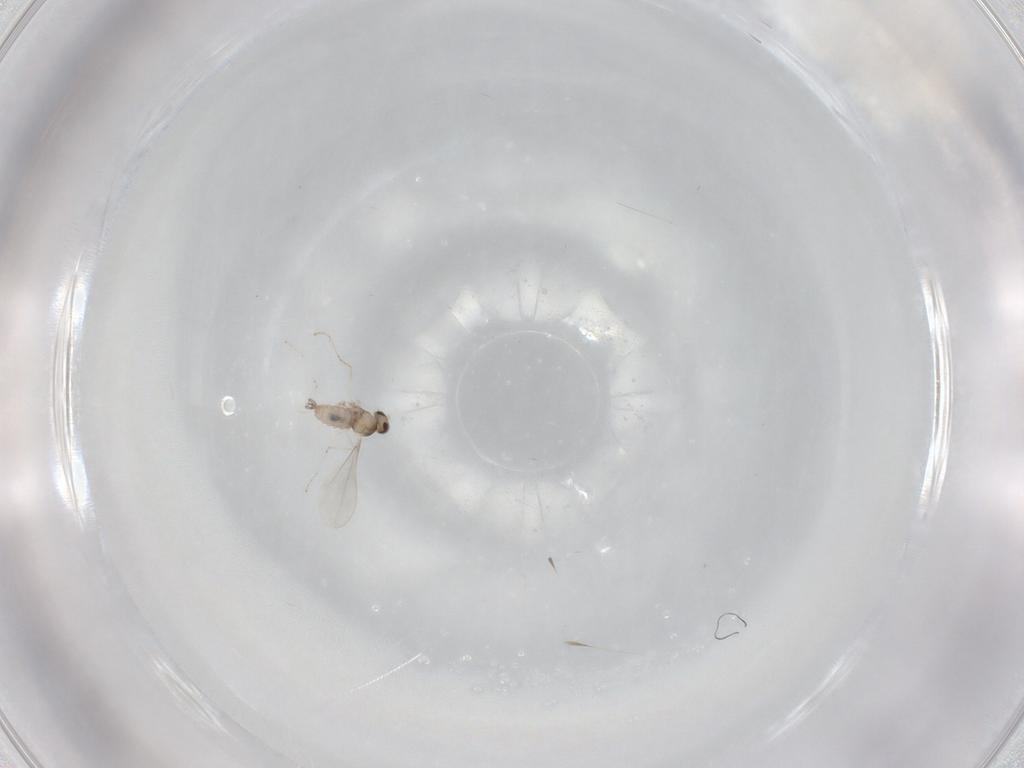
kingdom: Animalia
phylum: Arthropoda
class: Insecta
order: Diptera
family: Cecidomyiidae
